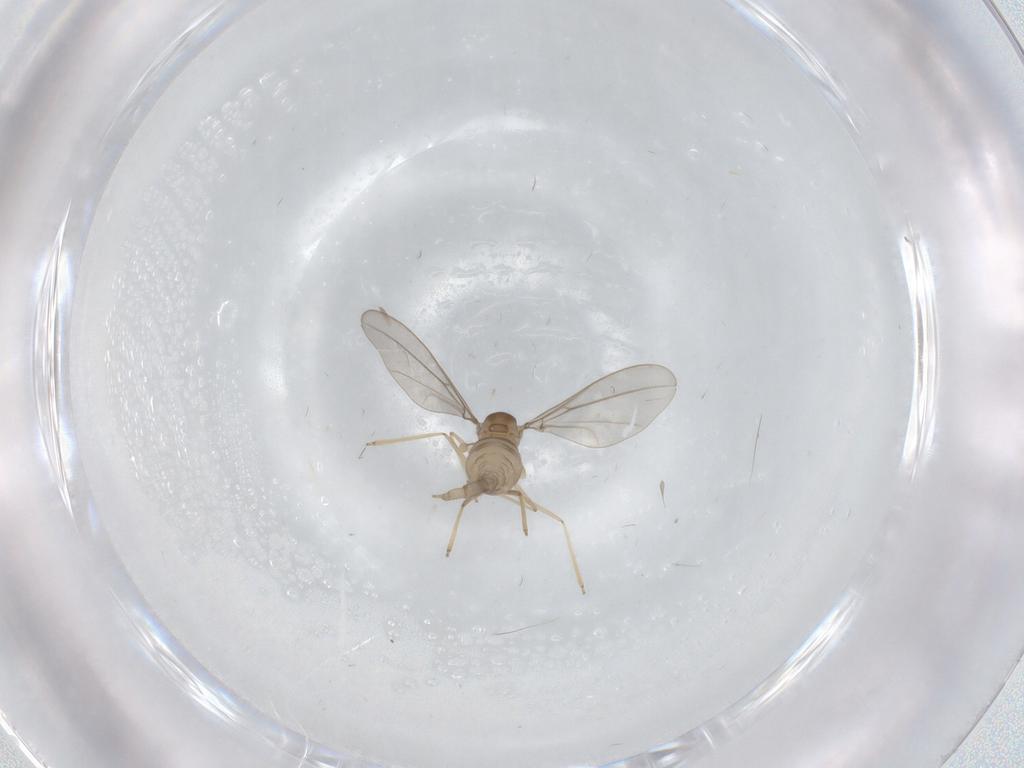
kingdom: Animalia
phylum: Arthropoda
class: Insecta
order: Diptera
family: Cecidomyiidae
